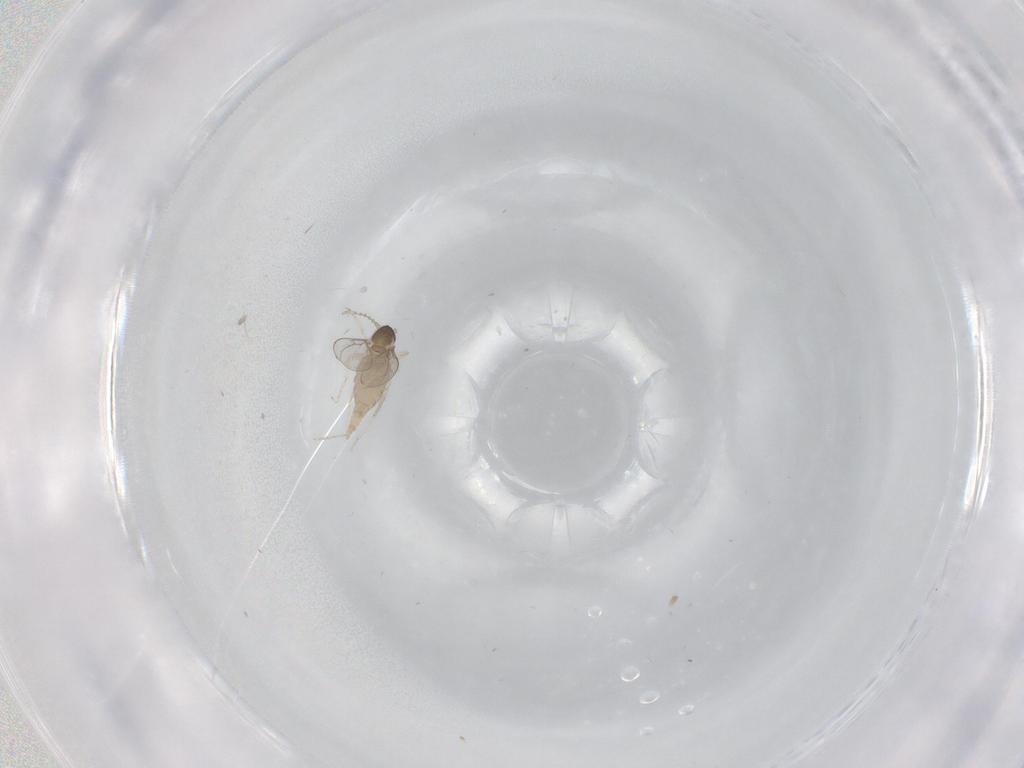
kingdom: Animalia
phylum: Arthropoda
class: Insecta
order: Diptera
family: Cecidomyiidae
